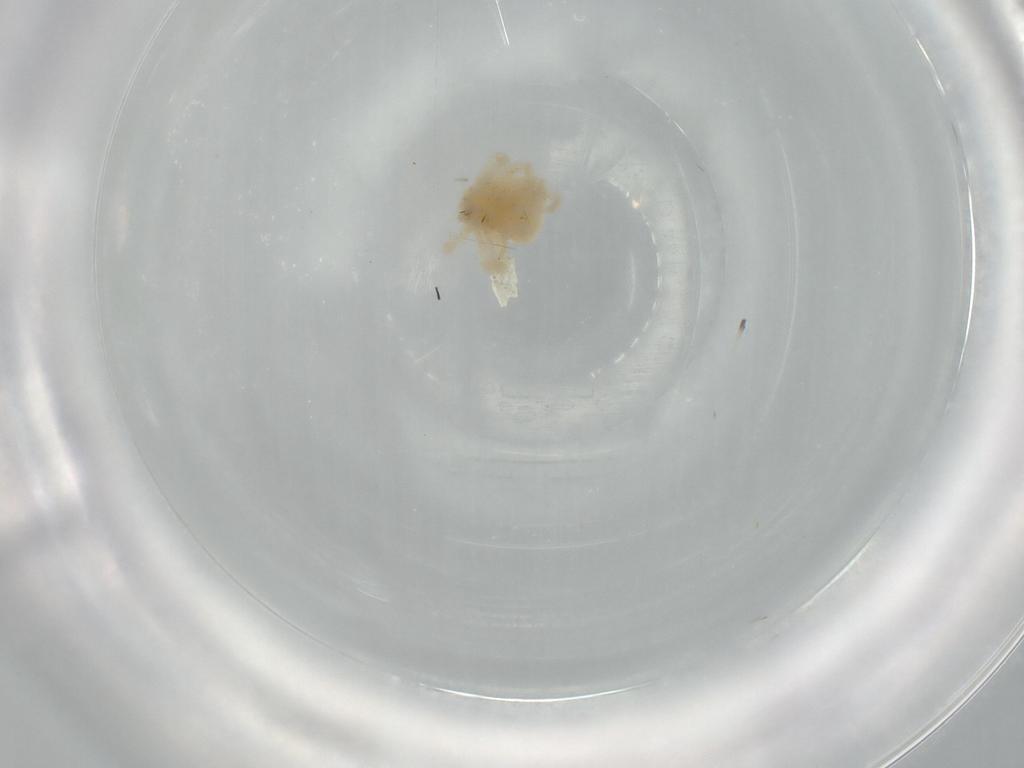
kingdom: Animalia
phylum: Arthropoda
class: Arachnida
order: Trombidiformes
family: Anystidae
